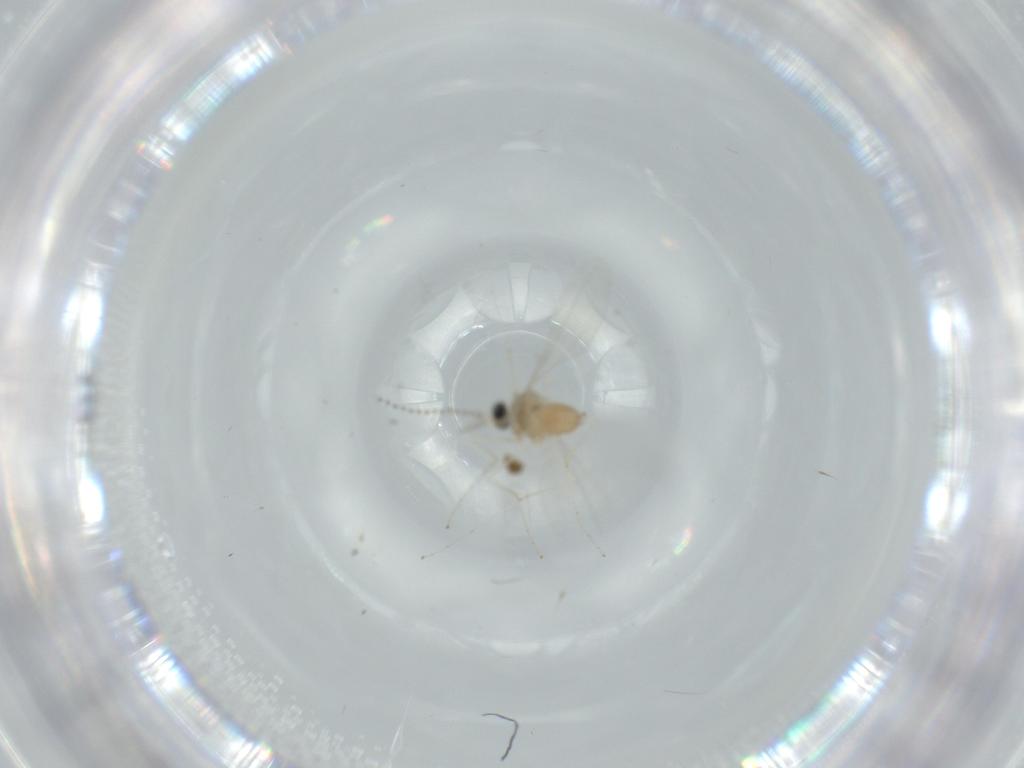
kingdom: Animalia
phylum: Arthropoda
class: Insecta
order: Diptera
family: Cecidomyiidae
